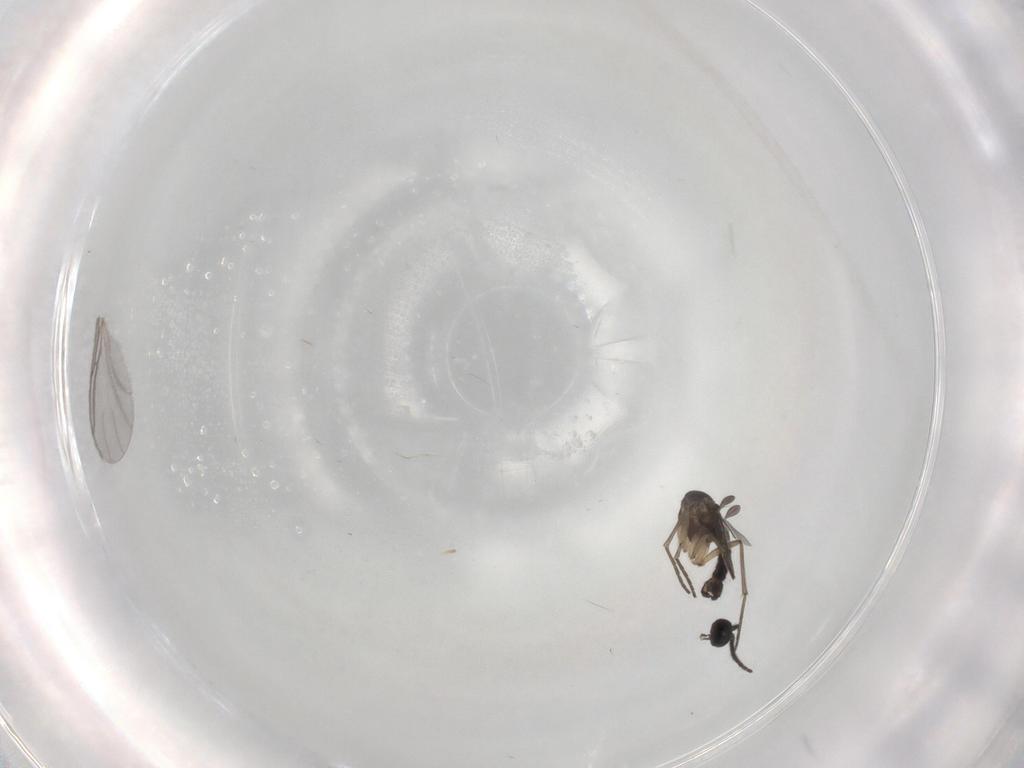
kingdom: Animalia
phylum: Arthropoda
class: Insecta
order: Diptera
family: Sciaridae
